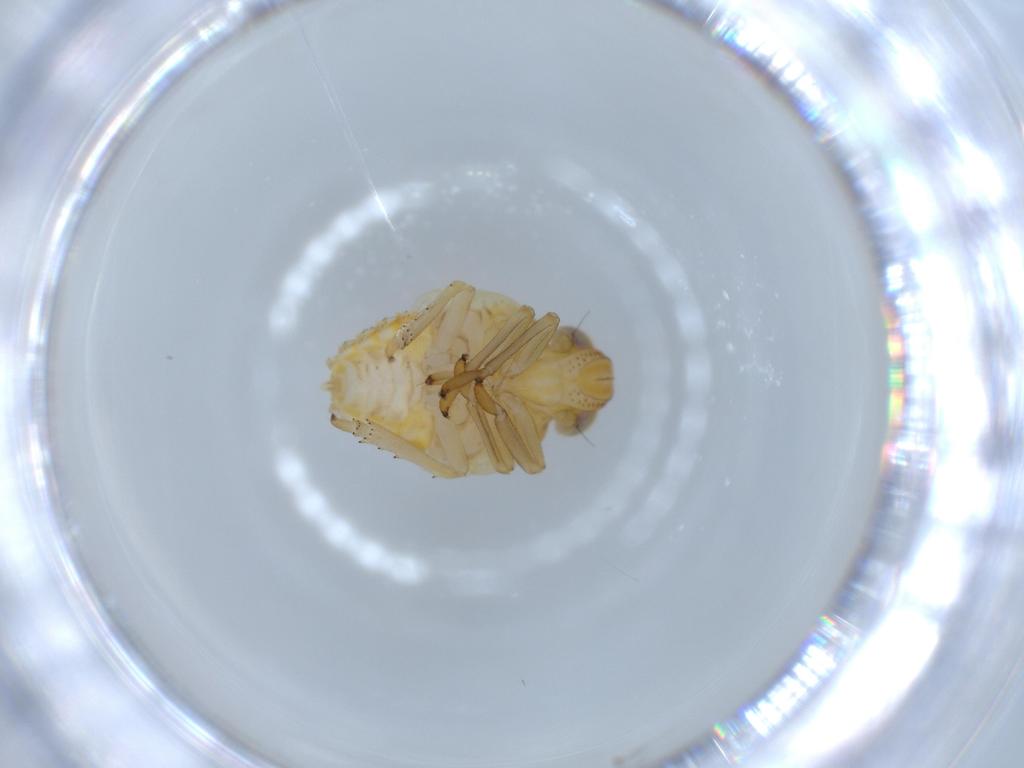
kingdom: Animalia
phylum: Arthropoda
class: Insecta
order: Hemiptera
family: Issidae
